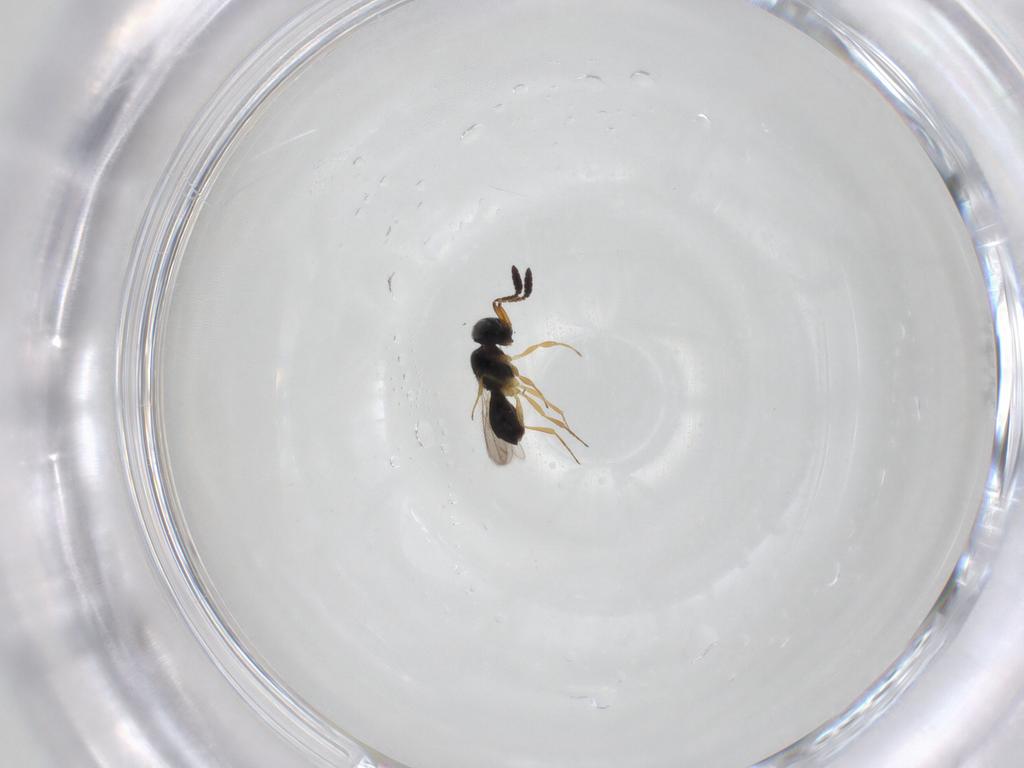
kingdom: Animalia
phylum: Arthropoda
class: Insecta
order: Hymenoptera
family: Scelionidae
